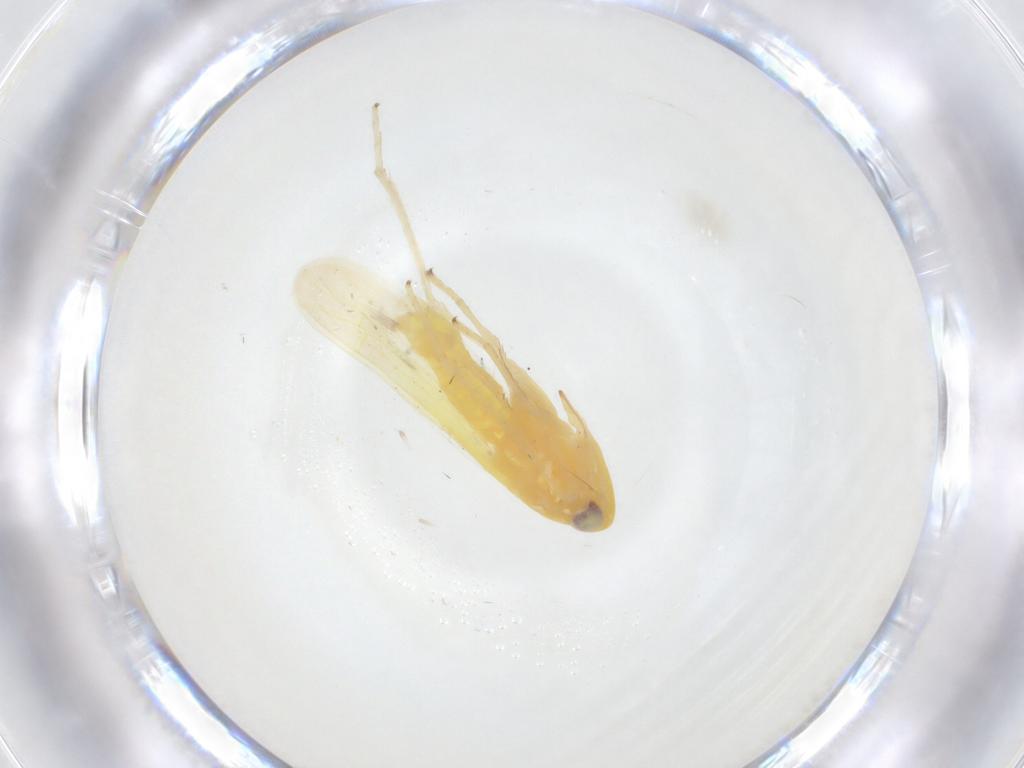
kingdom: Animalia
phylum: Arthropoda
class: Insecta
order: Hemiptera
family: Cicadellidae
